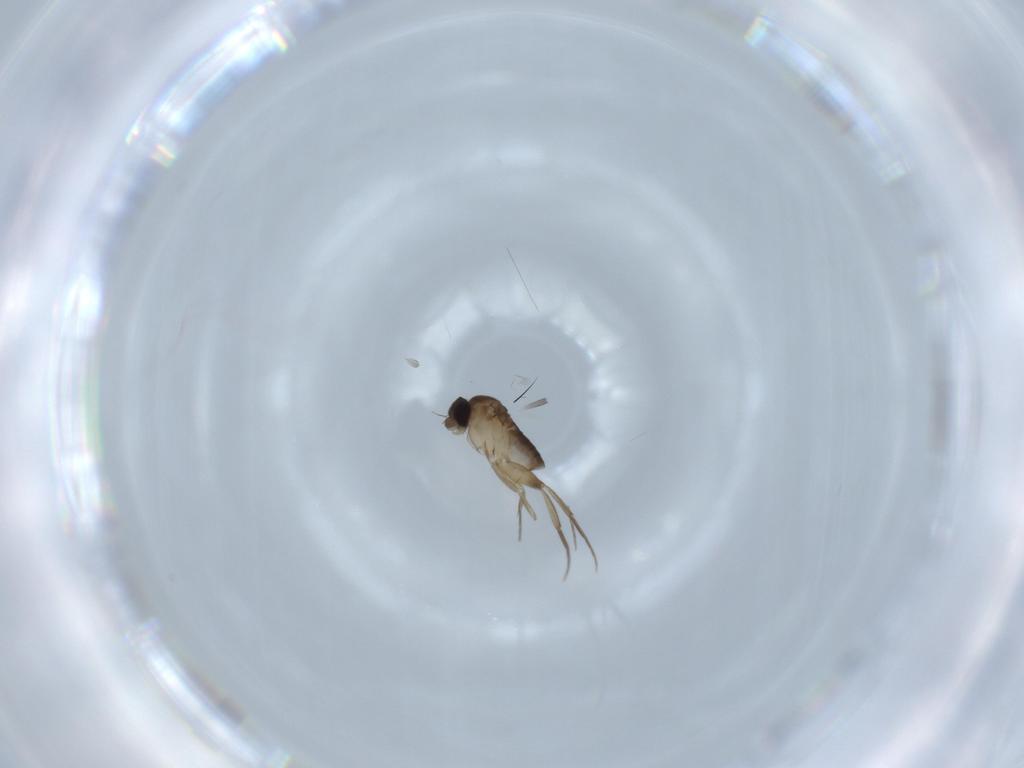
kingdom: Animalia
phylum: Arthropoda
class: Insecta
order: Diptera
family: Phoridae
